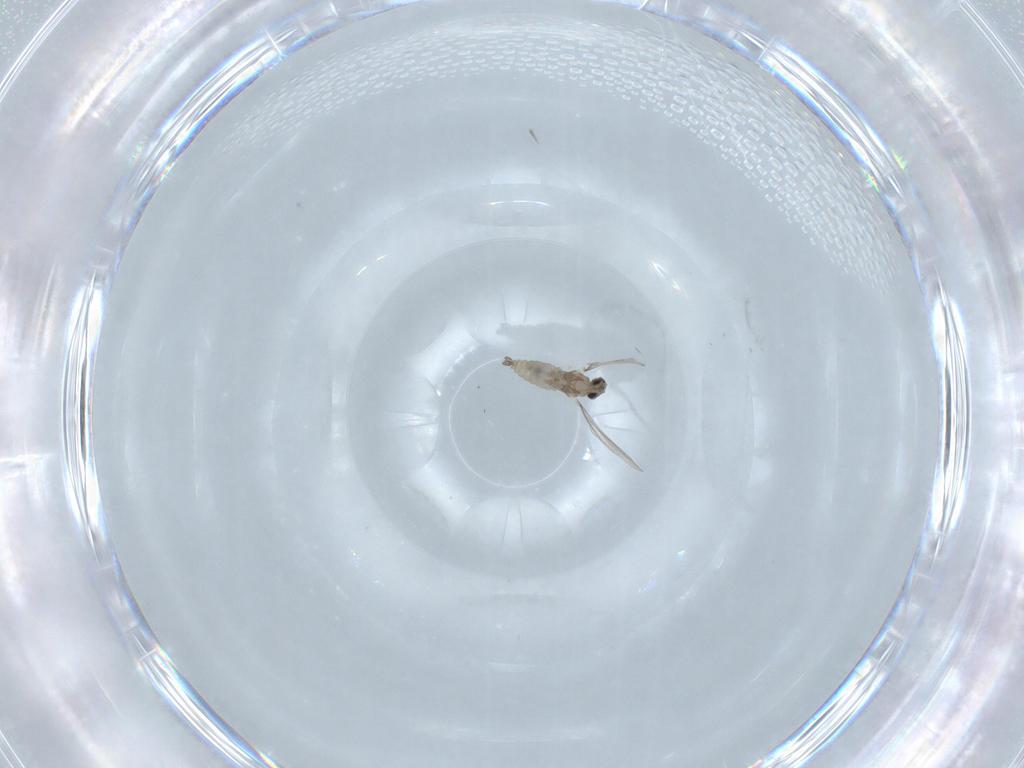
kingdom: Animalia
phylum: Arthropoda
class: Insecta
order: Diptera
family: Cecidomyiidae
